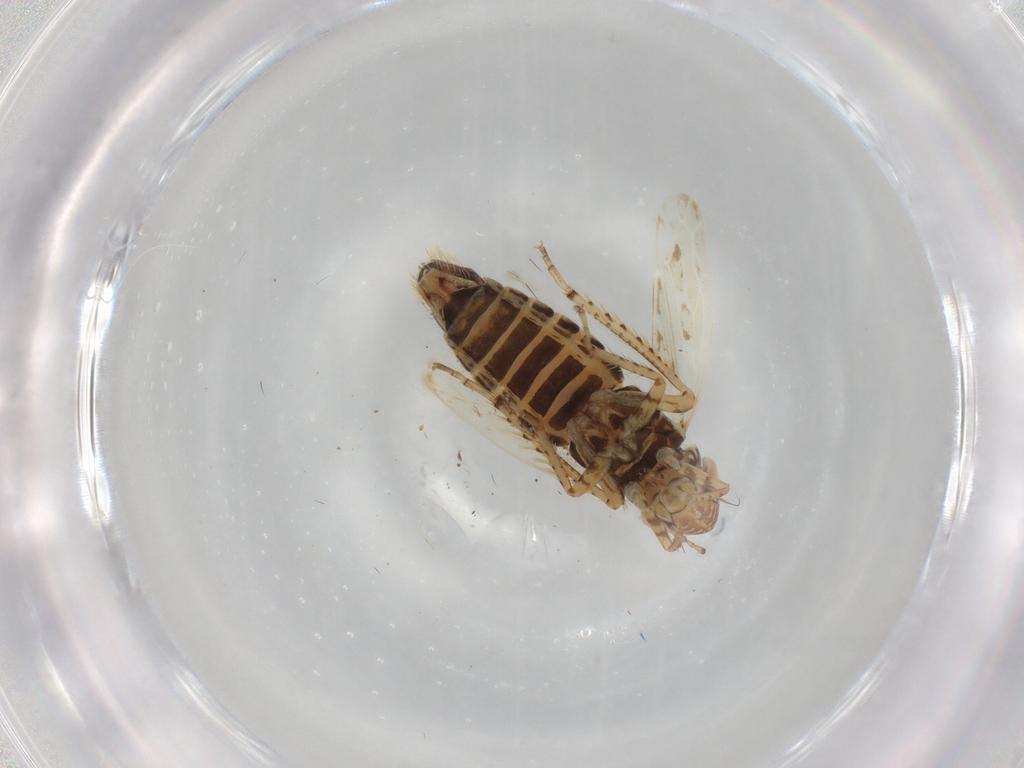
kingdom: Animalia
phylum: Arthropoda
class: Insecta
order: Hemiptera
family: Cicadellidae
